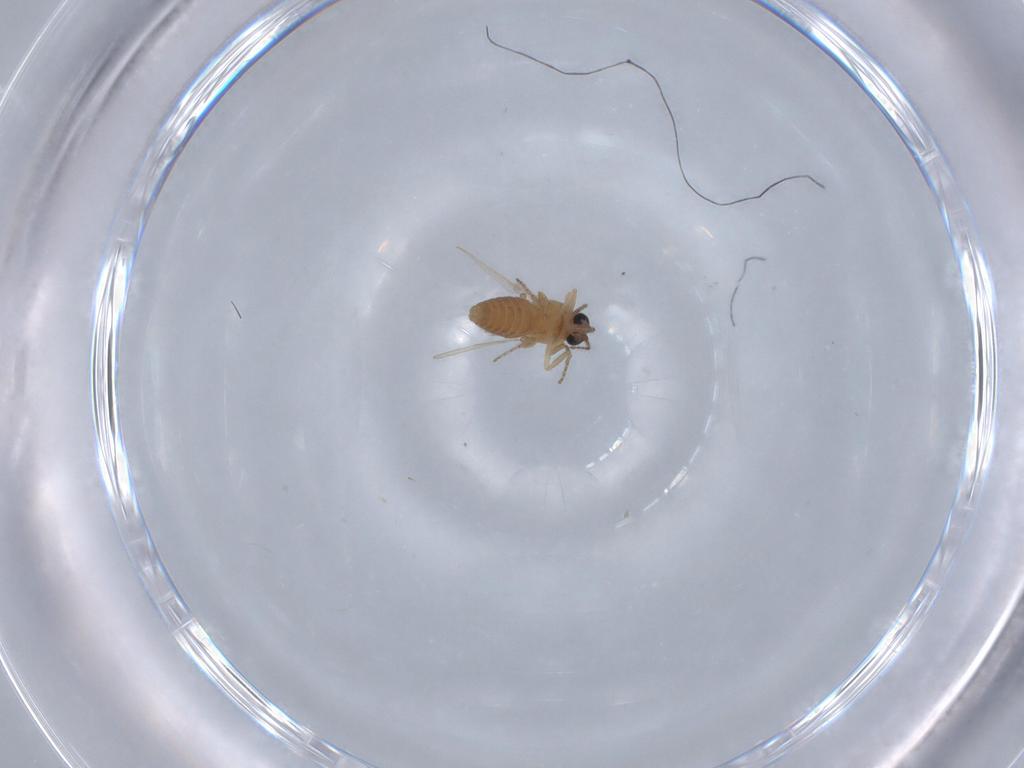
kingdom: Animalia
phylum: Arthropoda
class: Insecta
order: Diptera
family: Ceratopogonidae
